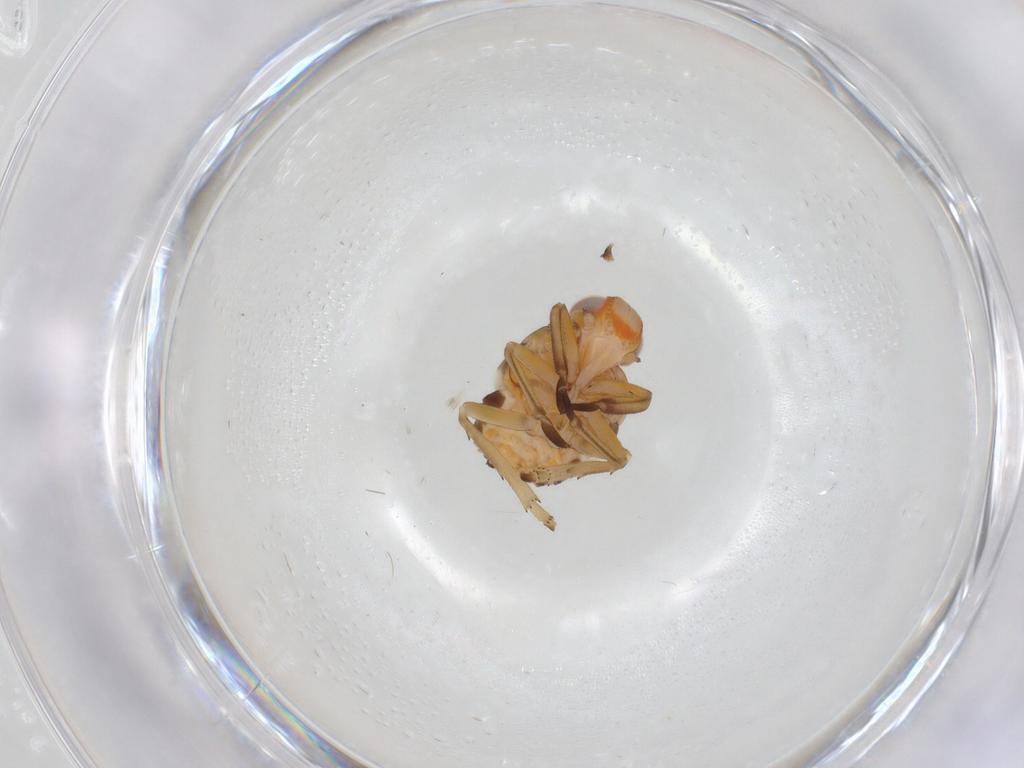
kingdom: Animalia
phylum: Arthropoda
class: Insecta
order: Hemiptera
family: Fulgoroidea_incertae_sedis
